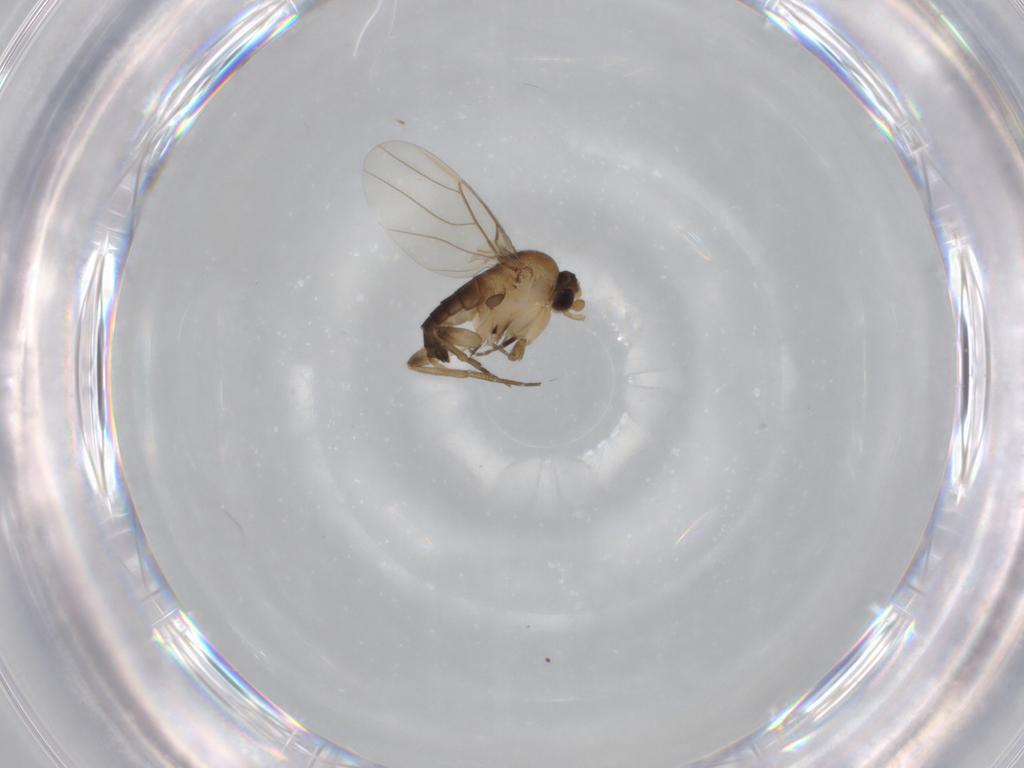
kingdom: Animalia
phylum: Arthropoda
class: Insecta
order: Diptera
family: Phoridae
